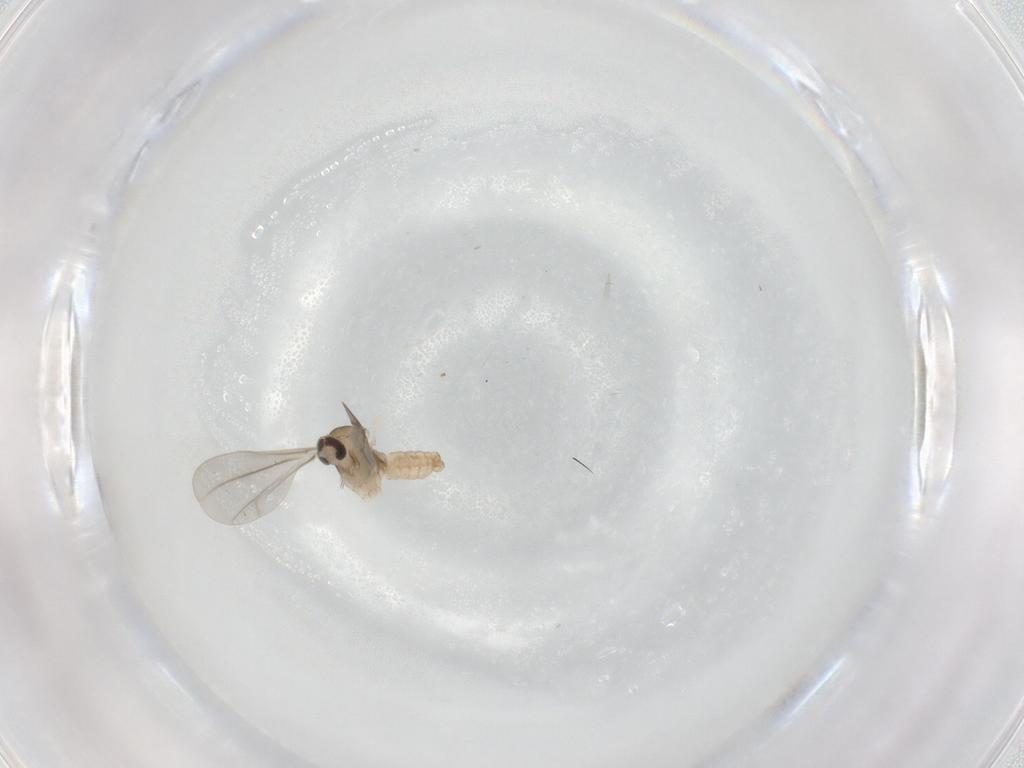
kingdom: Animalia
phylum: Arthropoda
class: Insecta
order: Diptera
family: Cecidomyiidae
